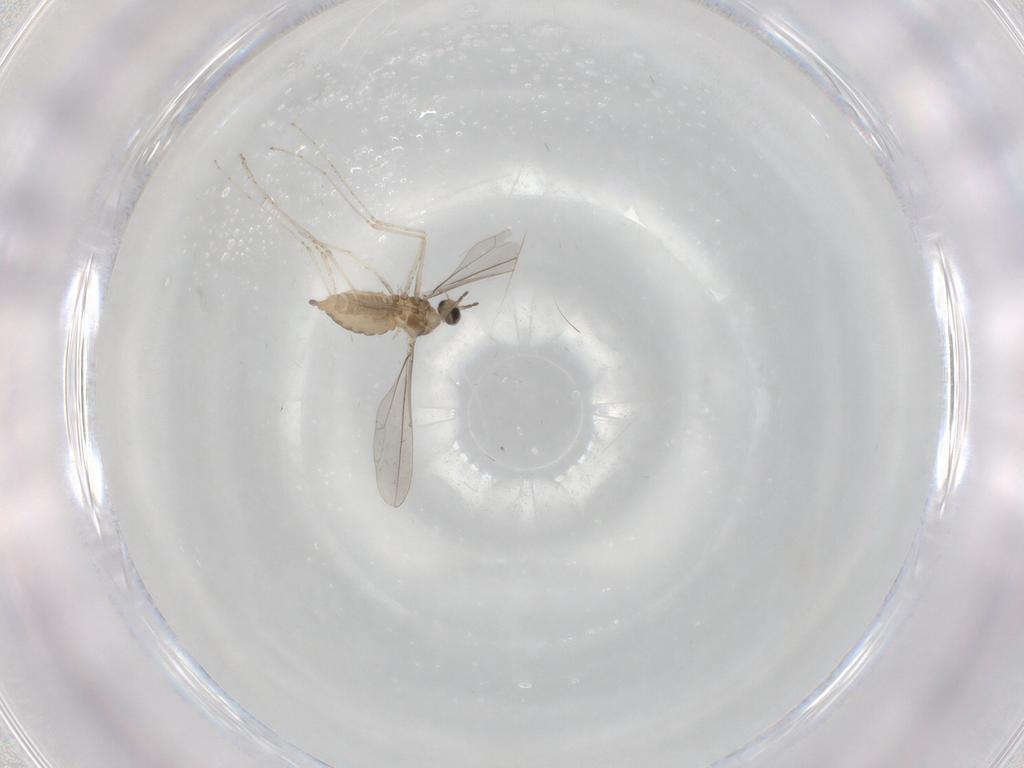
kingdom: Animalia
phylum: Arthropoda
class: Insecta
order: Diptera
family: Cecidomyiidae
